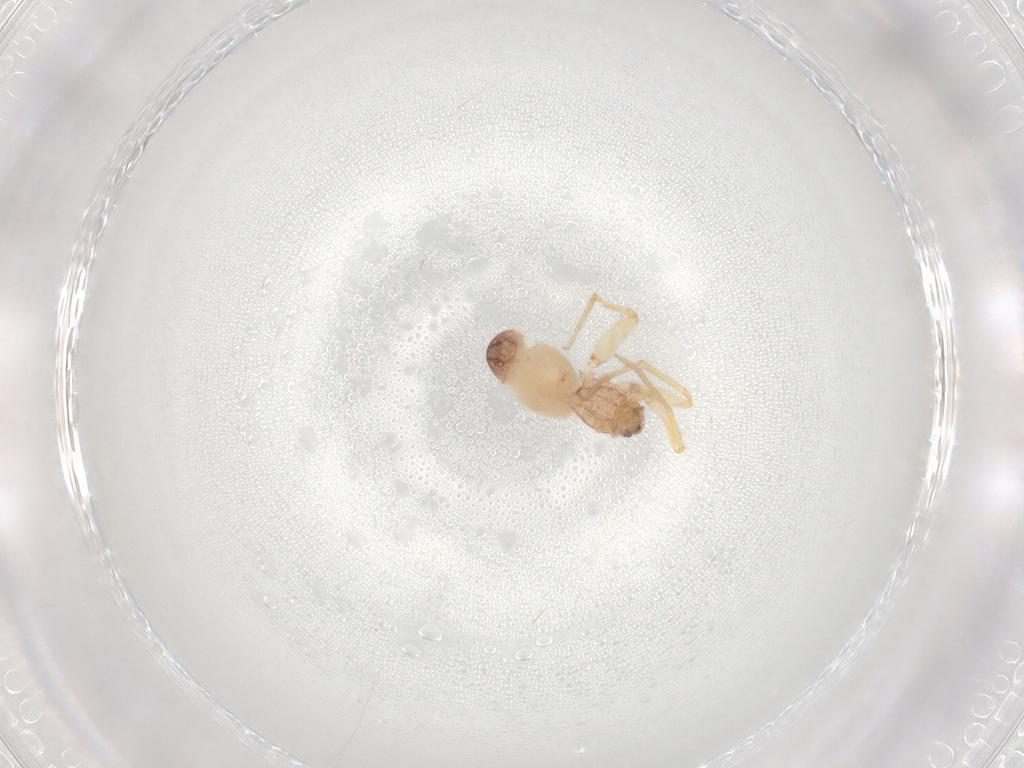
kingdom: Animalia
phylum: Arthropoda
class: Arachnida
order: Araneae
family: Idiopidae
